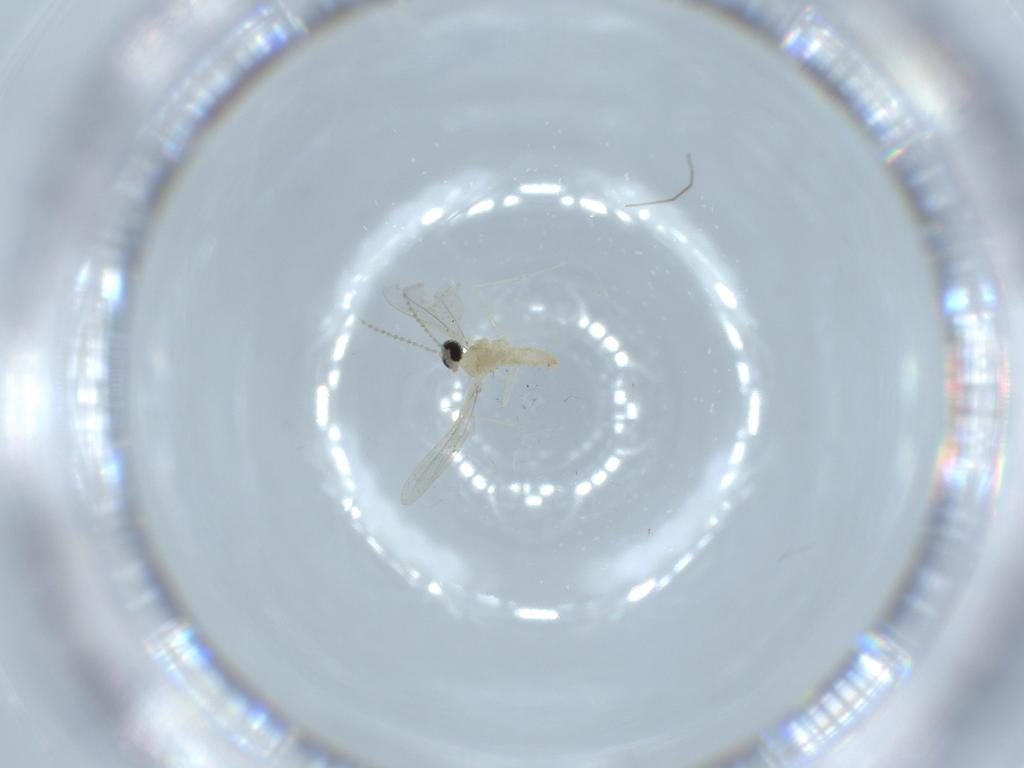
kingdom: Animalia
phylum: Arthropoda
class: Insecta
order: Diptera
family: Cecidomyiidae
